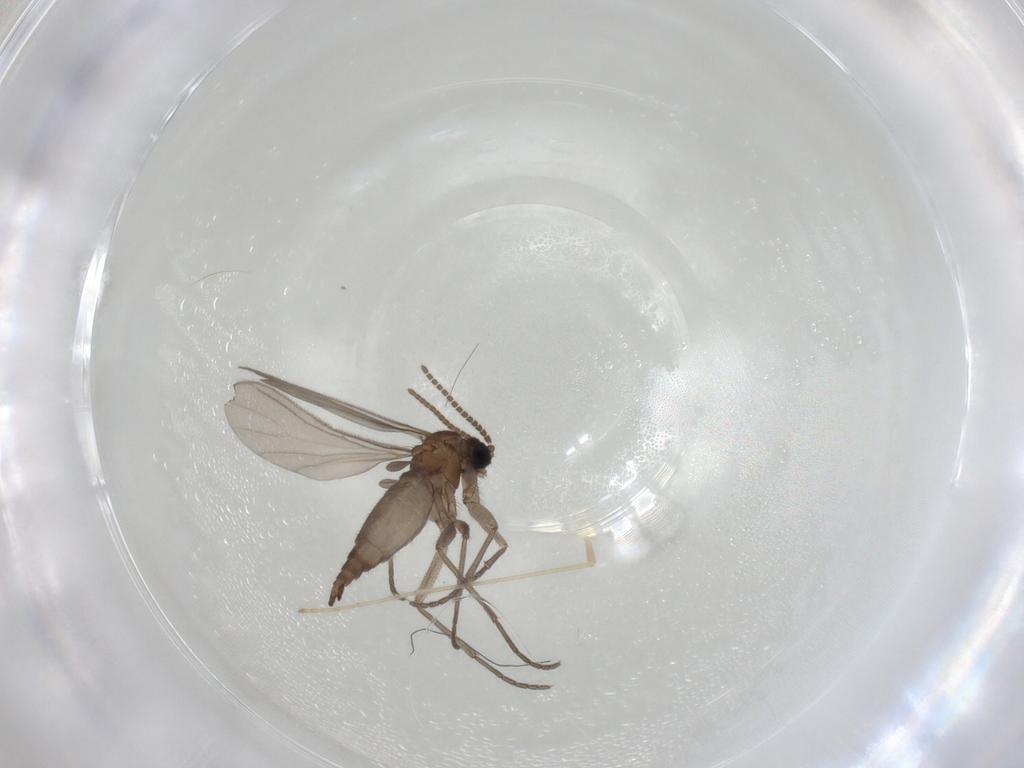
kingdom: Animalia
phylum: Arthropoda
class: Insecta
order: Diptera
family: Sciaridae
